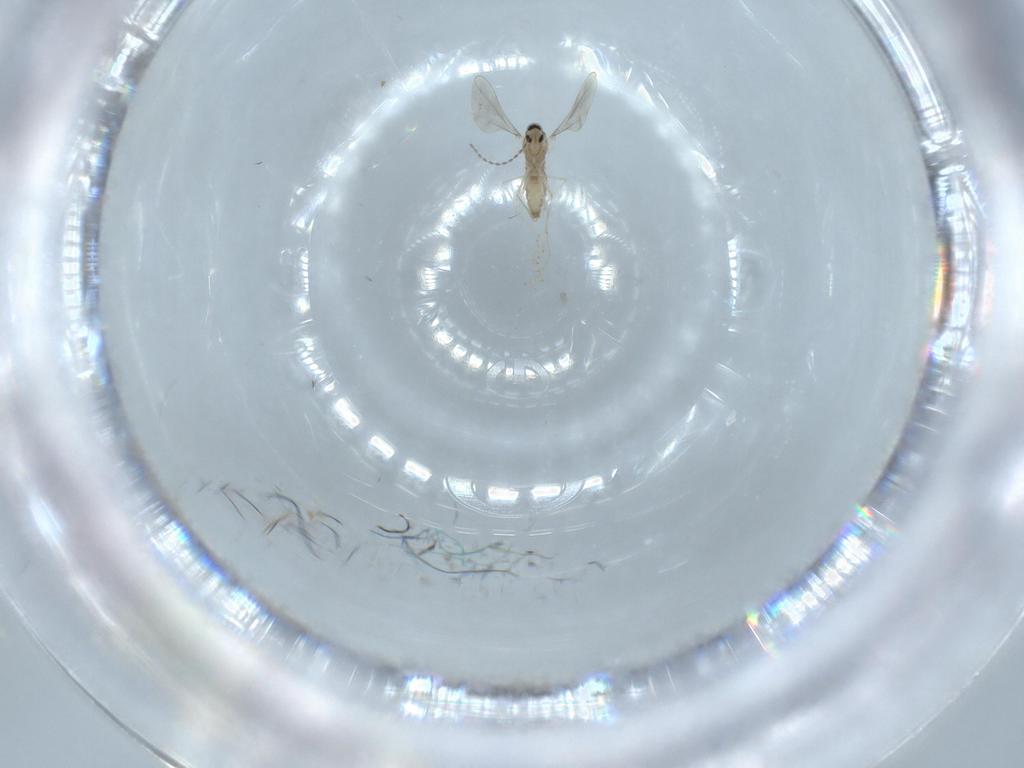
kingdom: Animalia
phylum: Arthropoda
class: Insecta
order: Diptera
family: Cecidomyiidae
